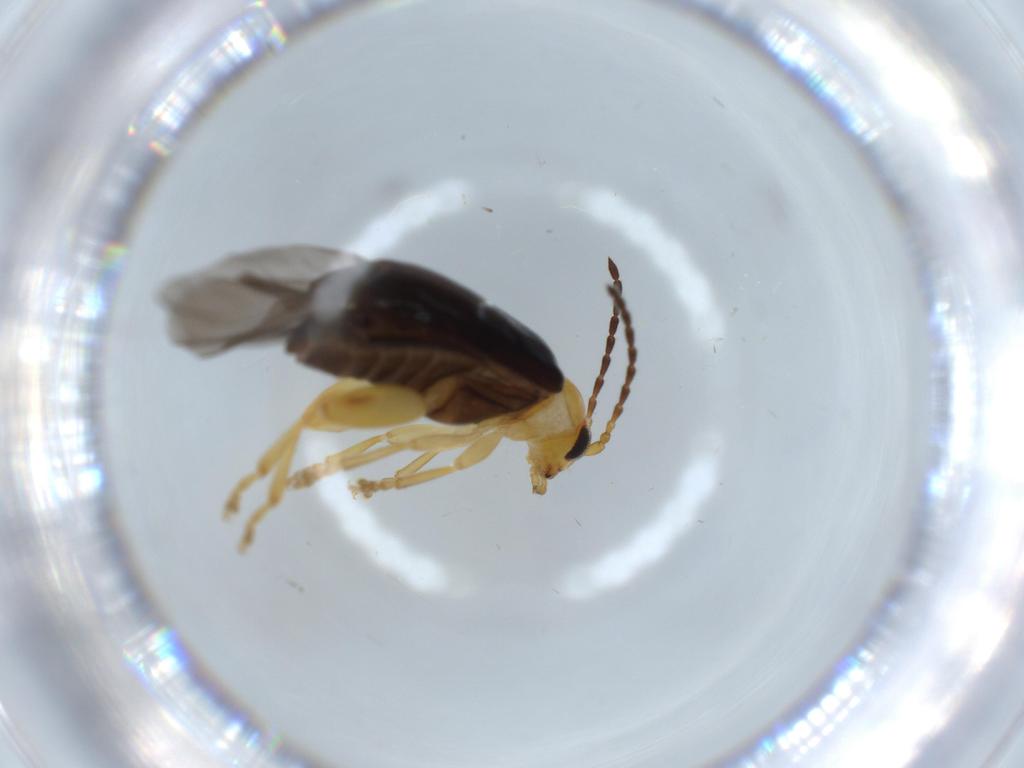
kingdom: Animalia
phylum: Arthropoda
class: Insecta
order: Coleoptera
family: Chrysomelidae
